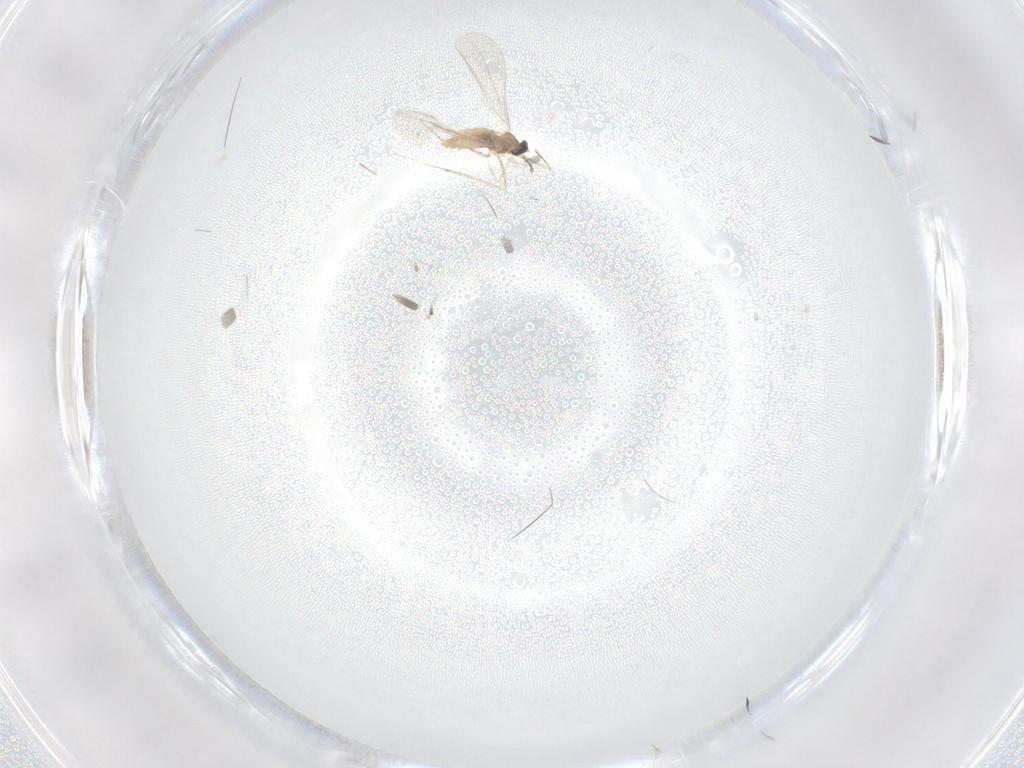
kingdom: Animalia
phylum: Arthropoda
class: Insecta
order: Diptera
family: Cecidomyiidae
